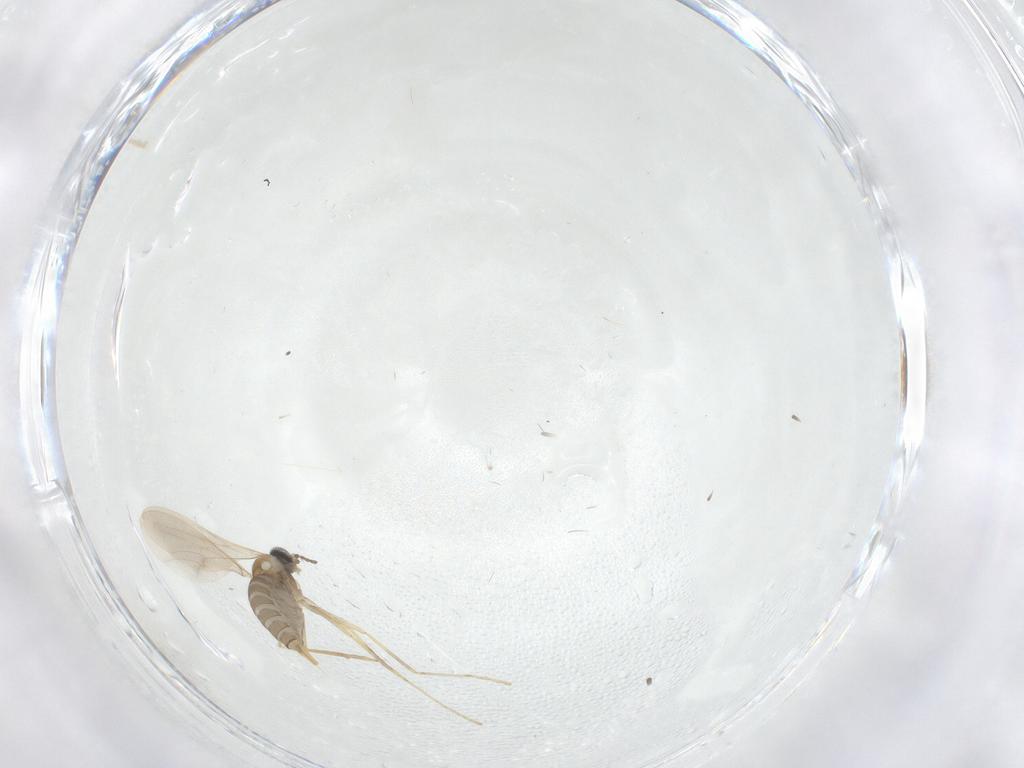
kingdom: Animalia
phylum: Arthropoda
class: Insecta
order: Diptera
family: Cecidomyiidae
